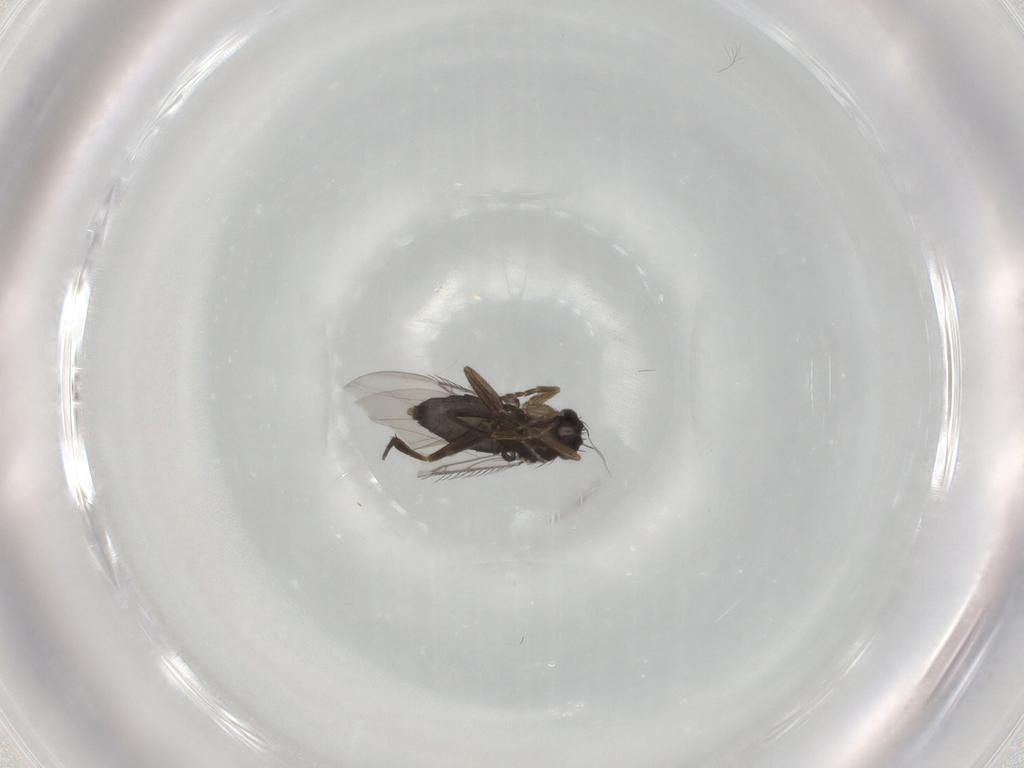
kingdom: Animalia
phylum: Arthropoda
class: Insecta
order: Diptera
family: Phoridae
